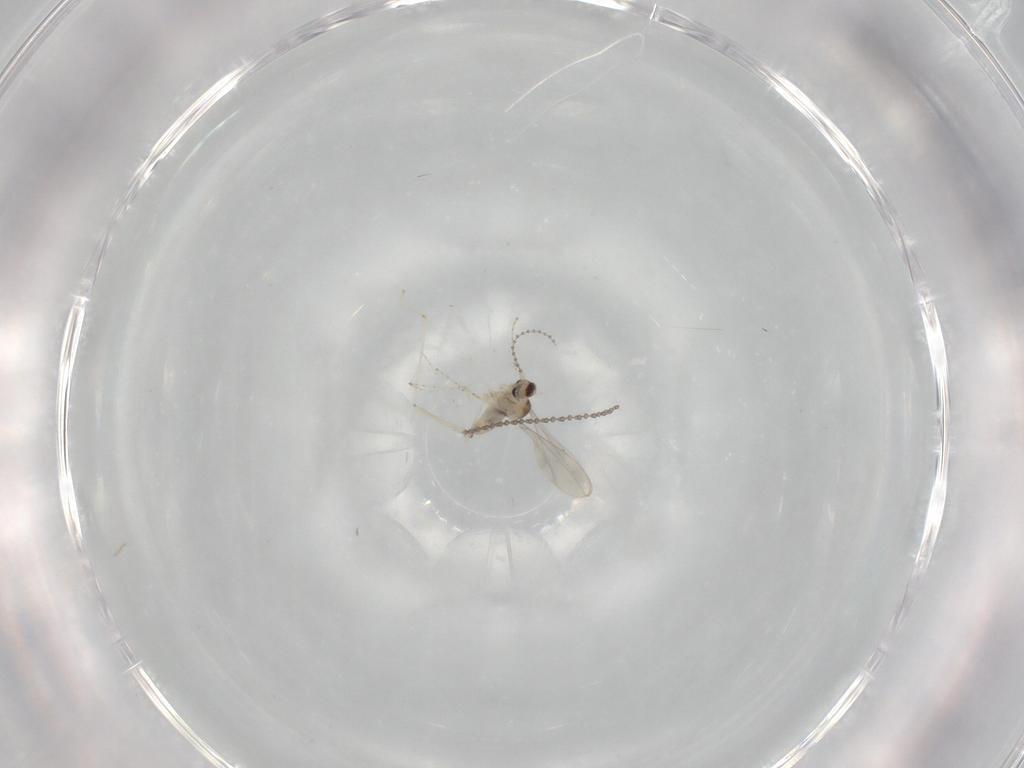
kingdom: Animalia
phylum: Arthropoda
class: Insecta
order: Diptera
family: Cecidomyiidae
